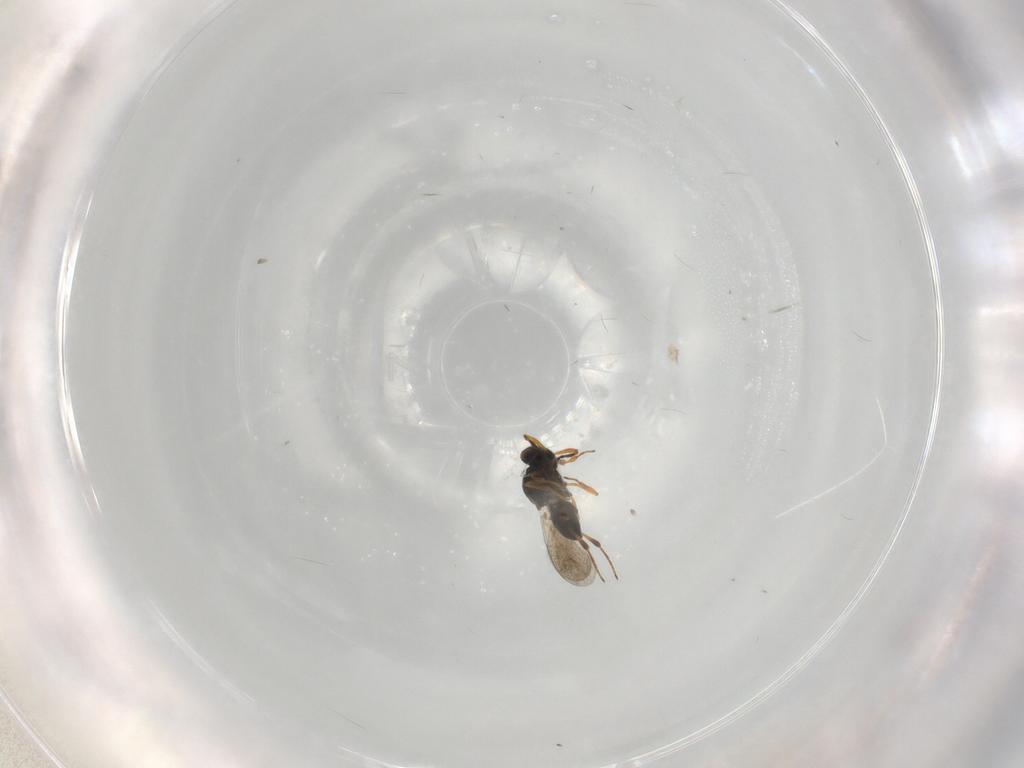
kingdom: Animalia
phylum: Arthropoda
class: Insecta
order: Hymenoptera
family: Platygastridae
